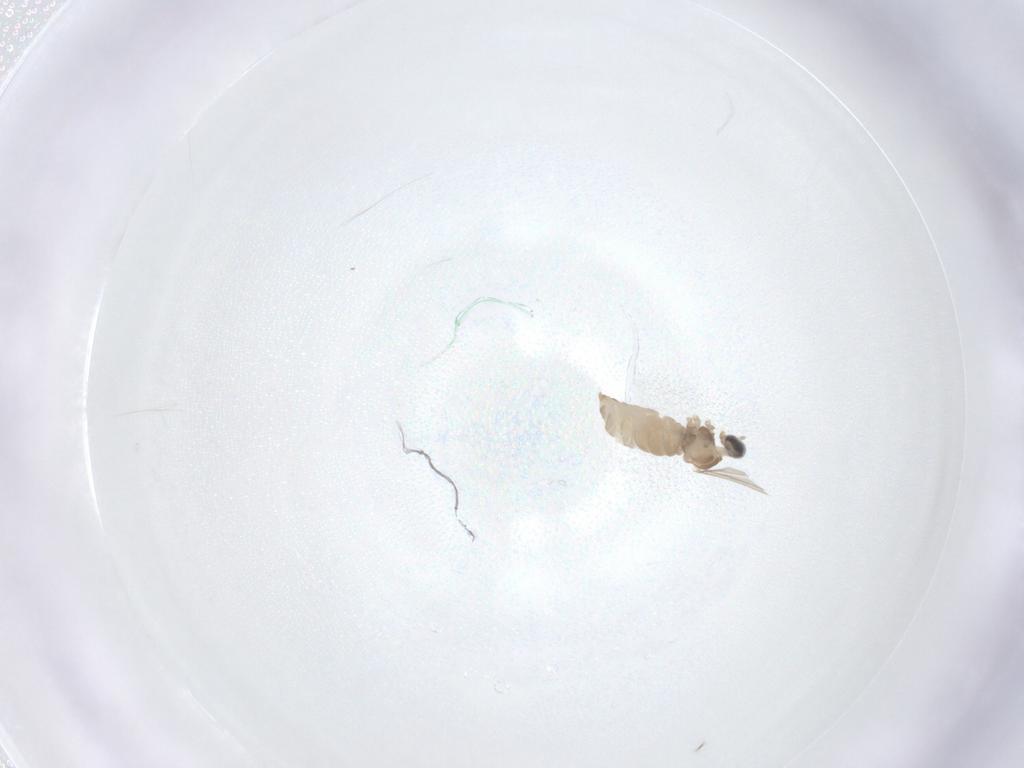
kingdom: Animalia
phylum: Arthropoda
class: Insecta
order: Diptera
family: Cecidomyiidae
